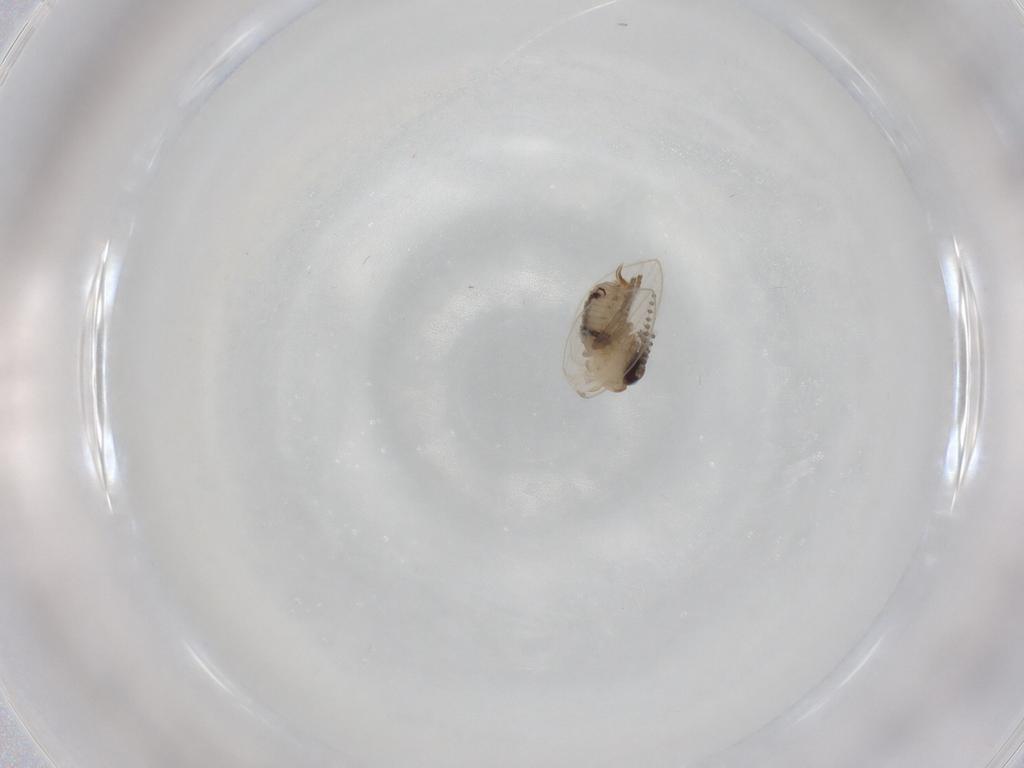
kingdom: Animalia
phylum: Arthropoda
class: Insecta
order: Diptera
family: Psychodidae
